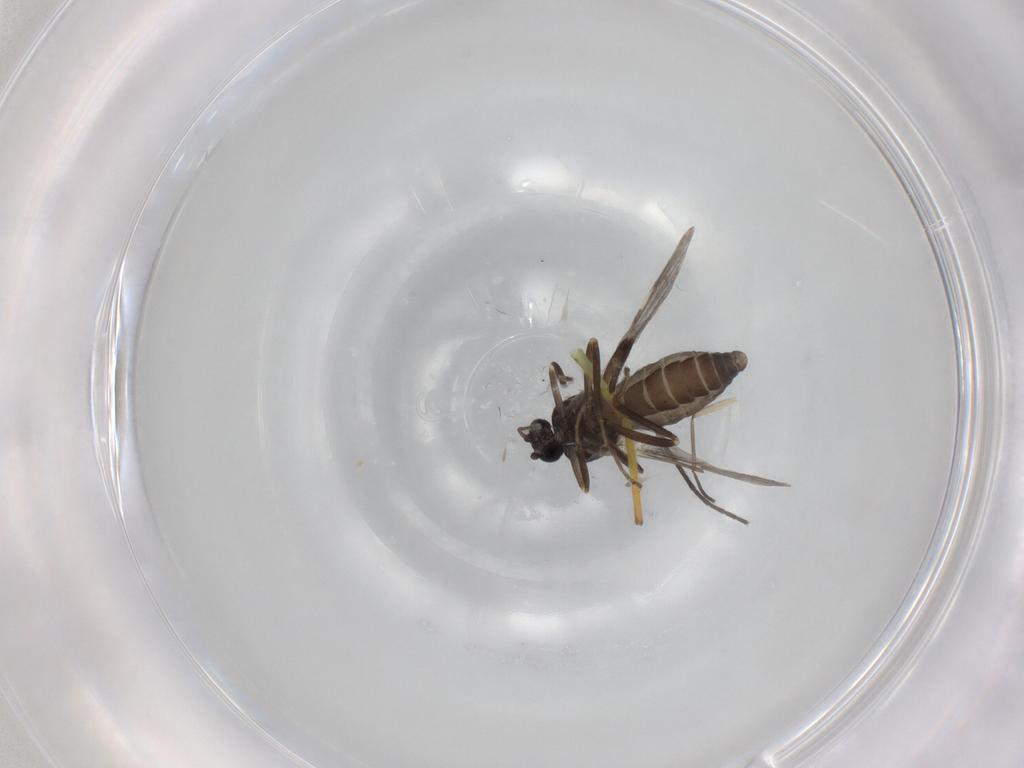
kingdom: Animalia
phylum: Arthropoda
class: Insecta
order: Diptera
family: Ceratopogonidae
